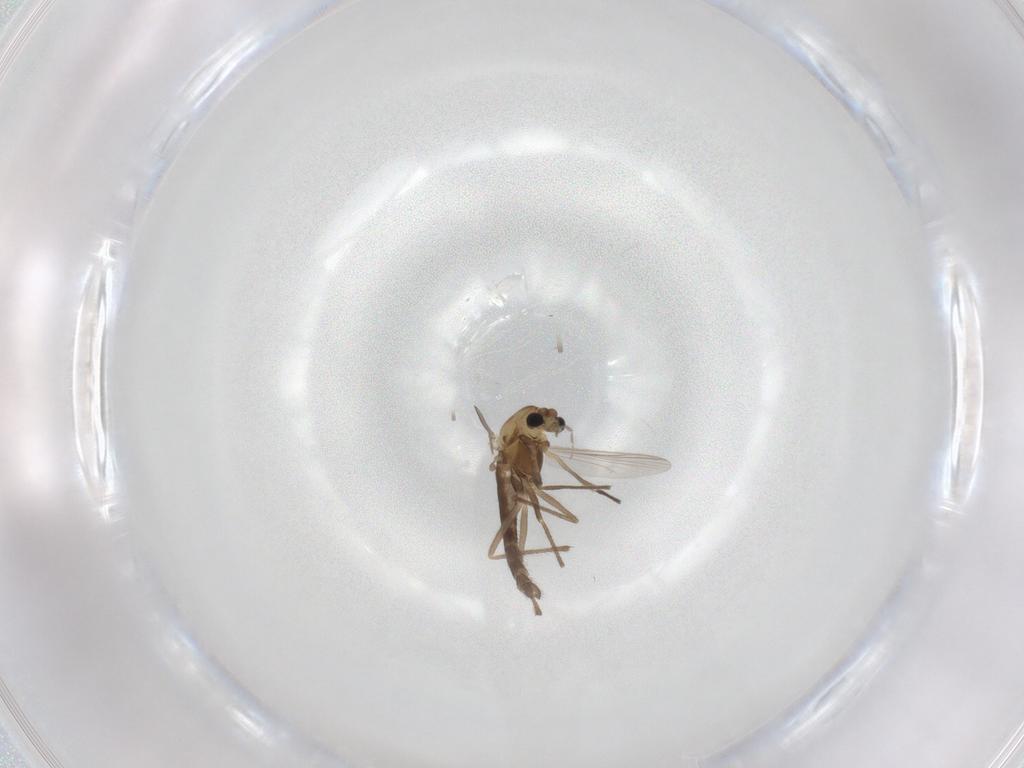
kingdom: Animalia
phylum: Arthropoda
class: Insecta
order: Diptera
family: Chironomidae
